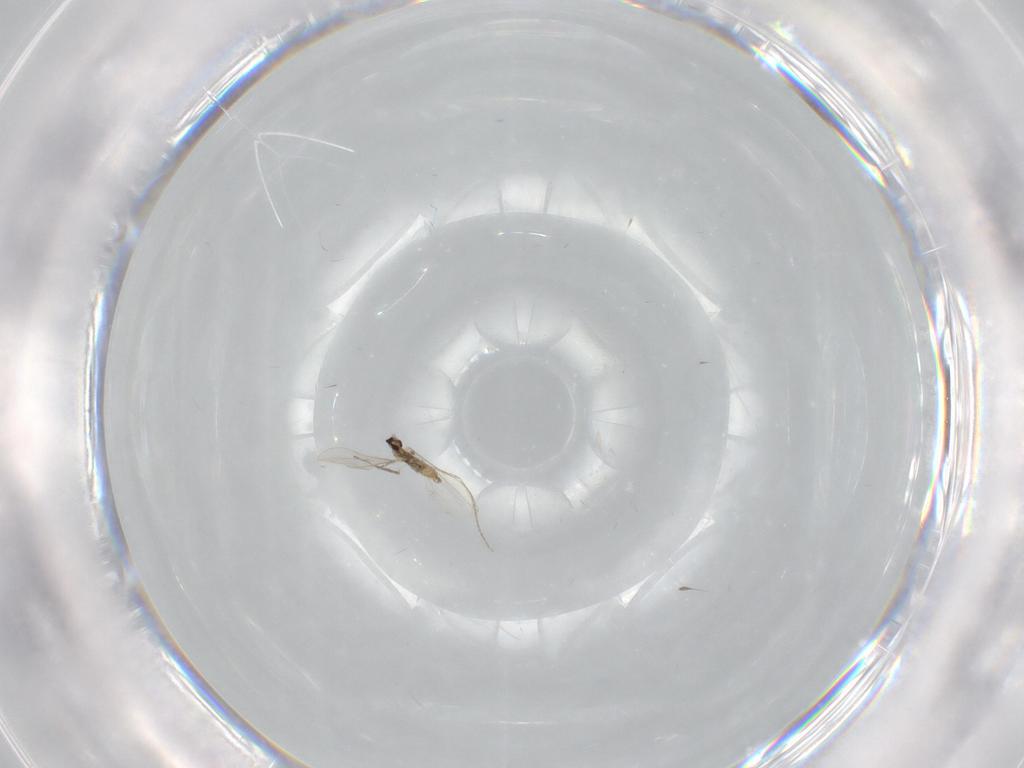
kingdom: Animalia
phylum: Arthropoda
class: Insecta
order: Diptera
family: Cecidomyiidae
